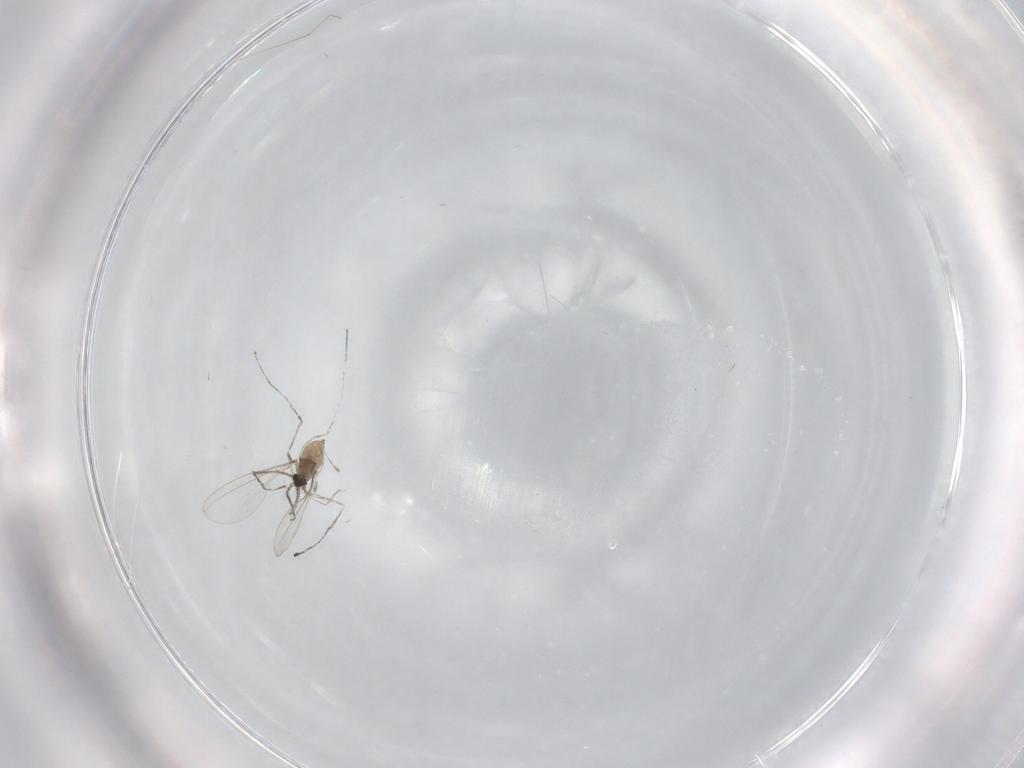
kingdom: Animalia
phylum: Arthropoda
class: Insecta
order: Diptera
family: Cecidomyiidae
